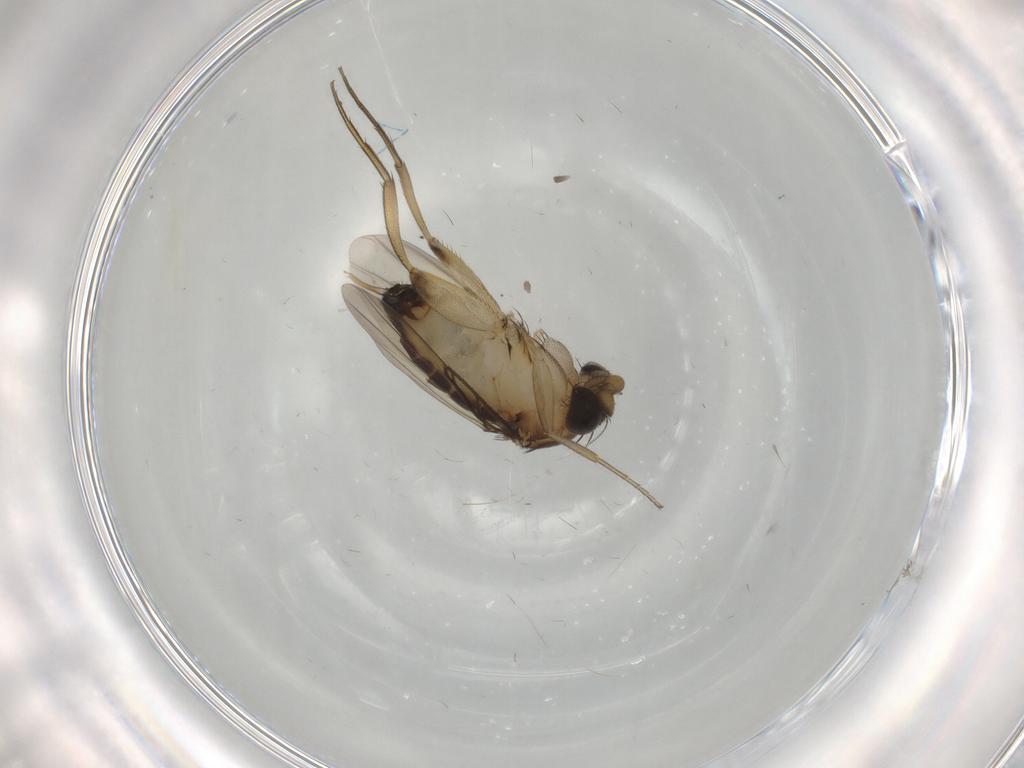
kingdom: Animalia
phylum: Arthropoda
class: Insecta
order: Diptera
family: Phoridae
